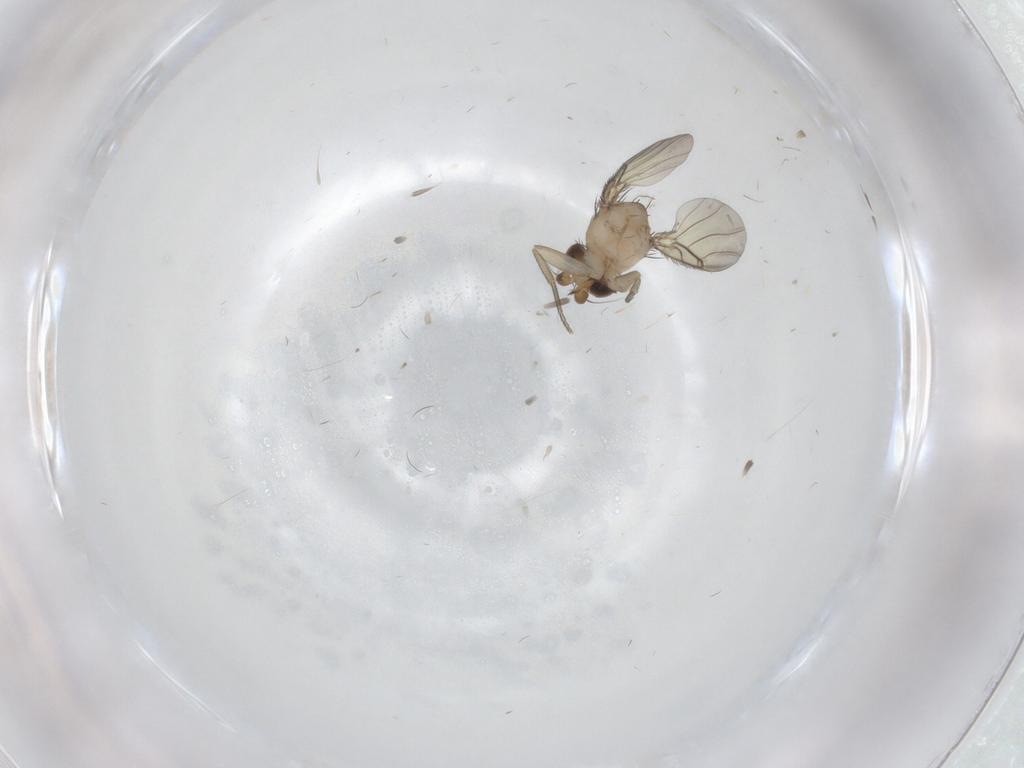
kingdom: Animalia
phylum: Arthropoda
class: Insecta
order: Diptera
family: Phoridae
